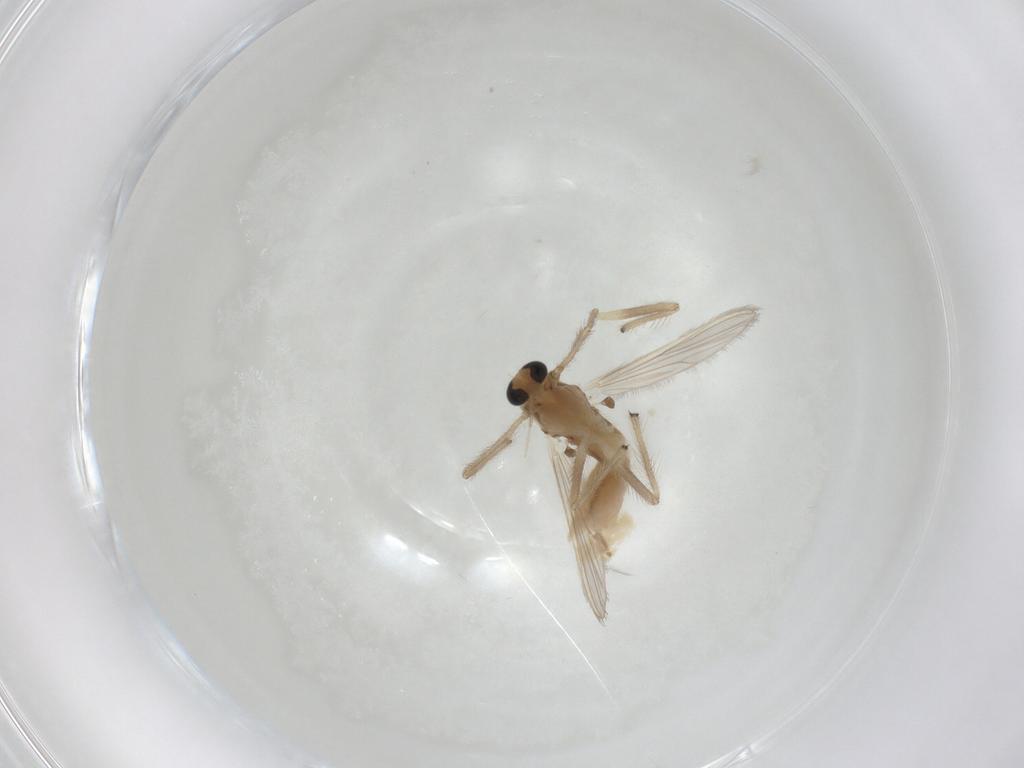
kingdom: Animalia
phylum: Arthropoda
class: Insecta
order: Diptera
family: Chironomidae
